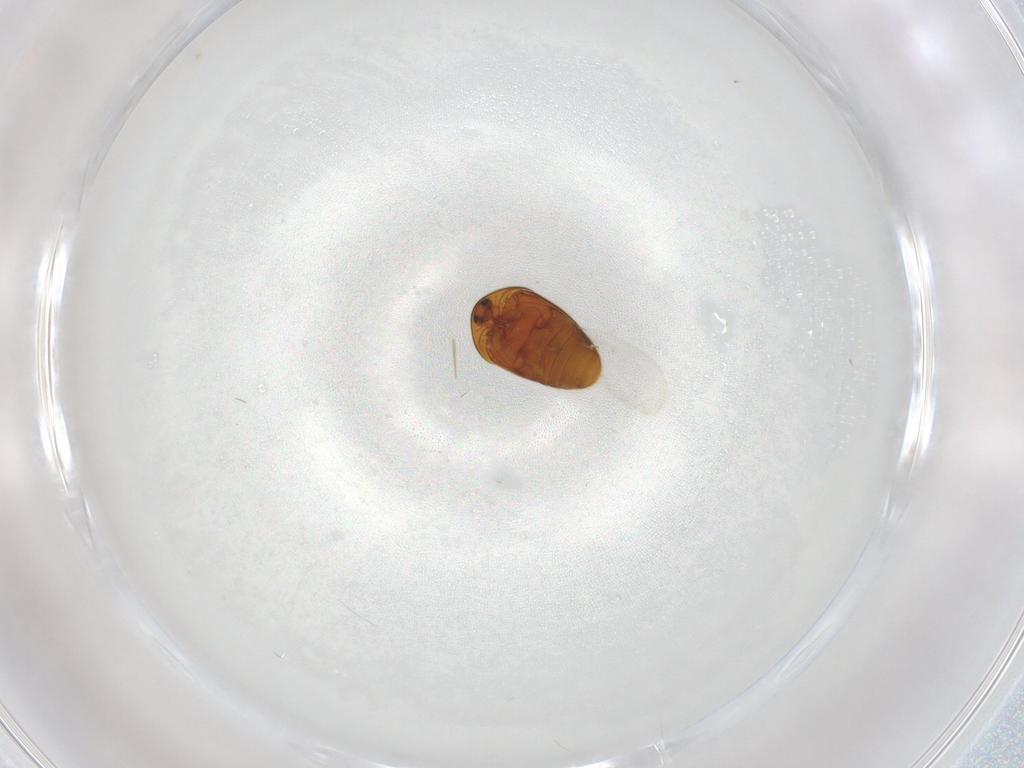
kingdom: Animalia
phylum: Arthropoda
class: Insecta
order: Coleoptera
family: Corylophidae
